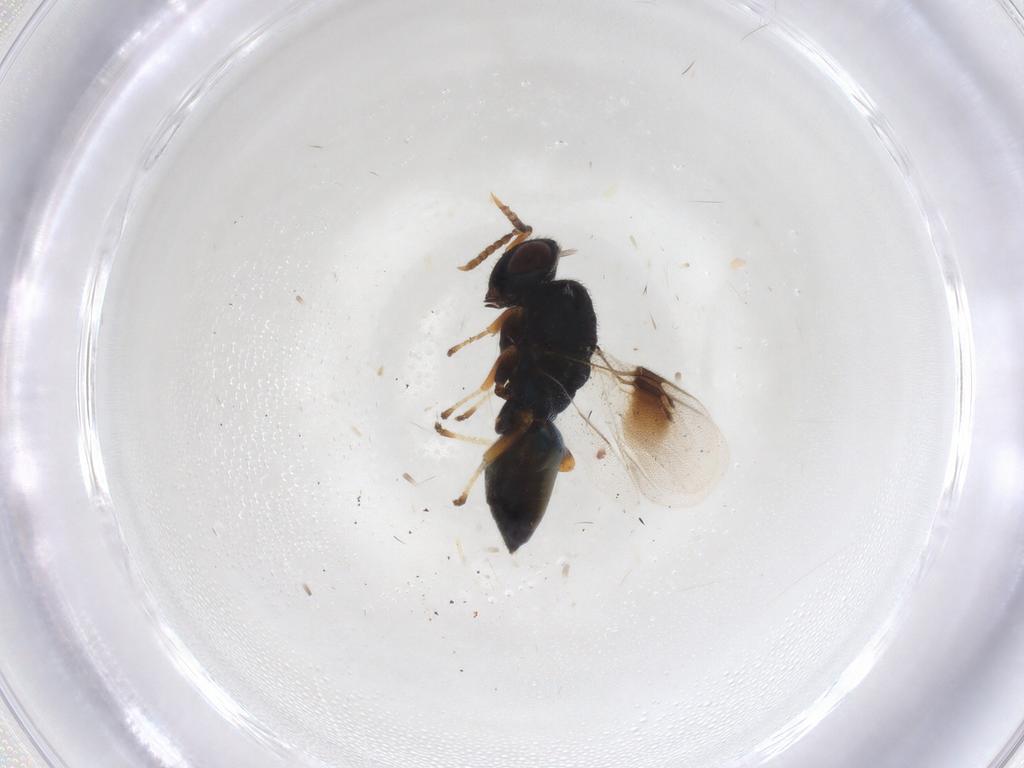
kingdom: Animalia
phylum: Arthropoda
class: Insecta
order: Hymenoptera
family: Pteromalidae
